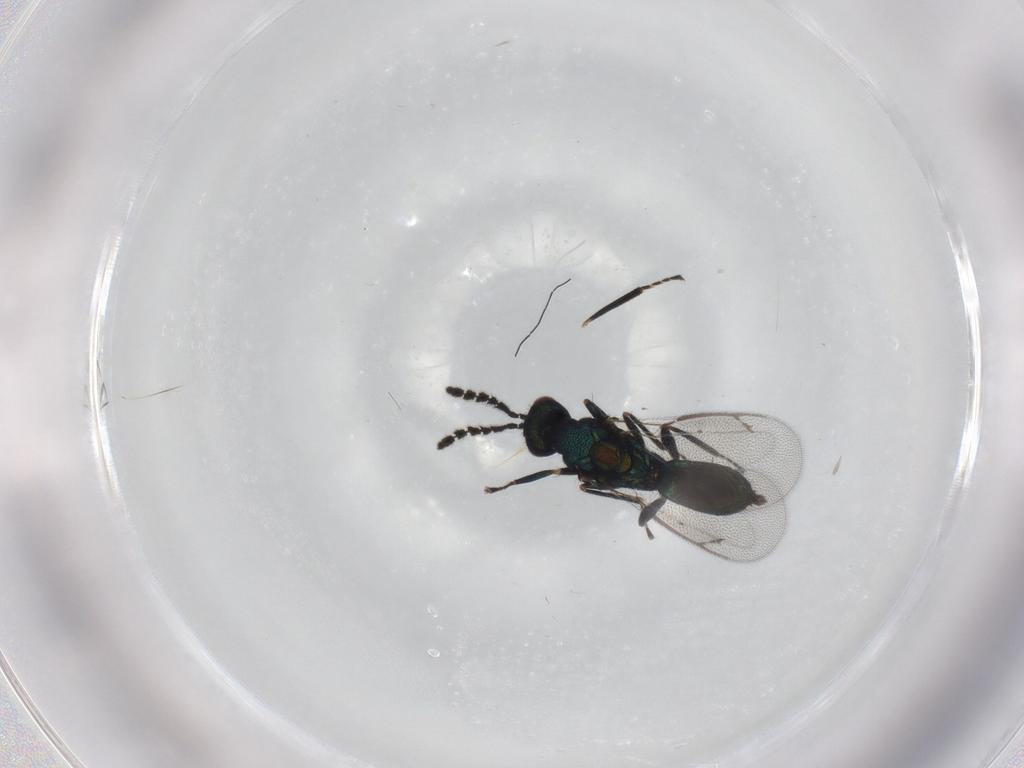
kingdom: Animalia
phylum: Arthropoda
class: Insecta
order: Hymenoptera
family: Eulophidae
